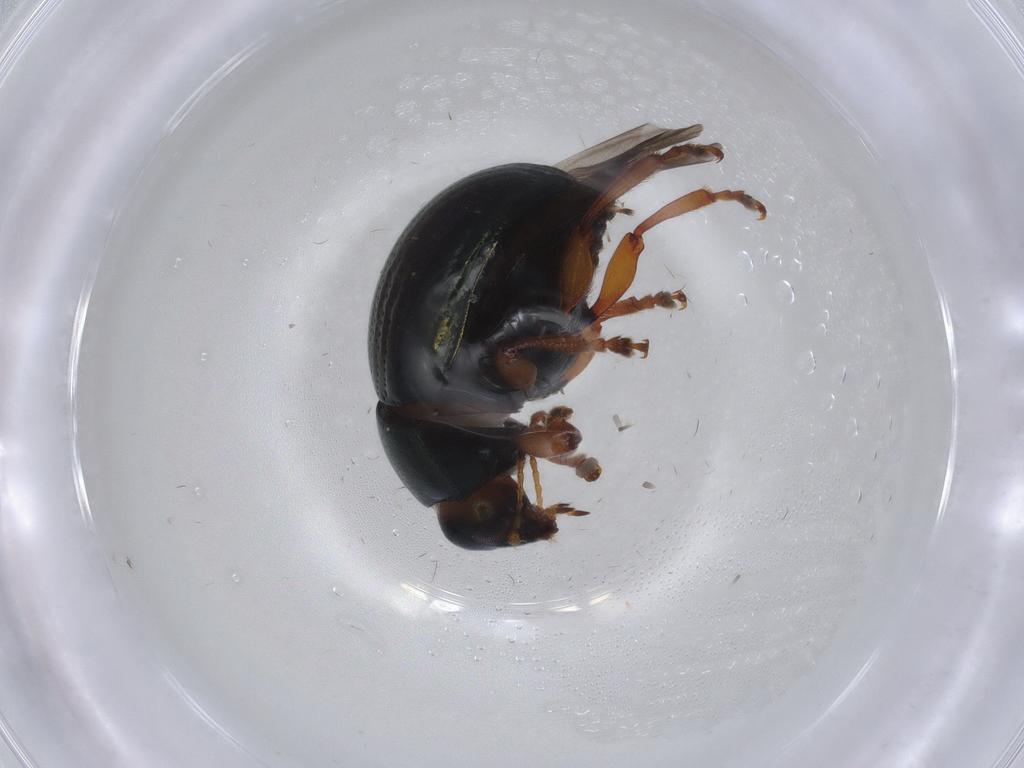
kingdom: Animalia
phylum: Arthropoda
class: Insecta
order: Coleoptera
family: Chrysomelidae
